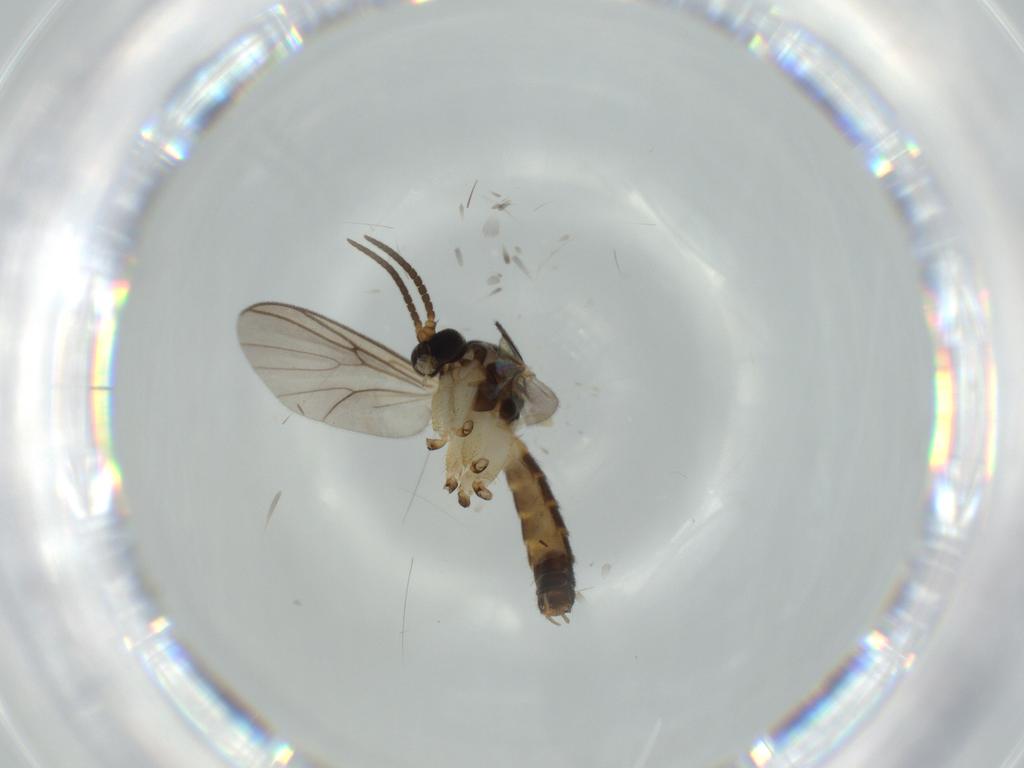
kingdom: Animalia
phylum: Arthropoda
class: Insecta
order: Diptera
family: Mycetophilidae
